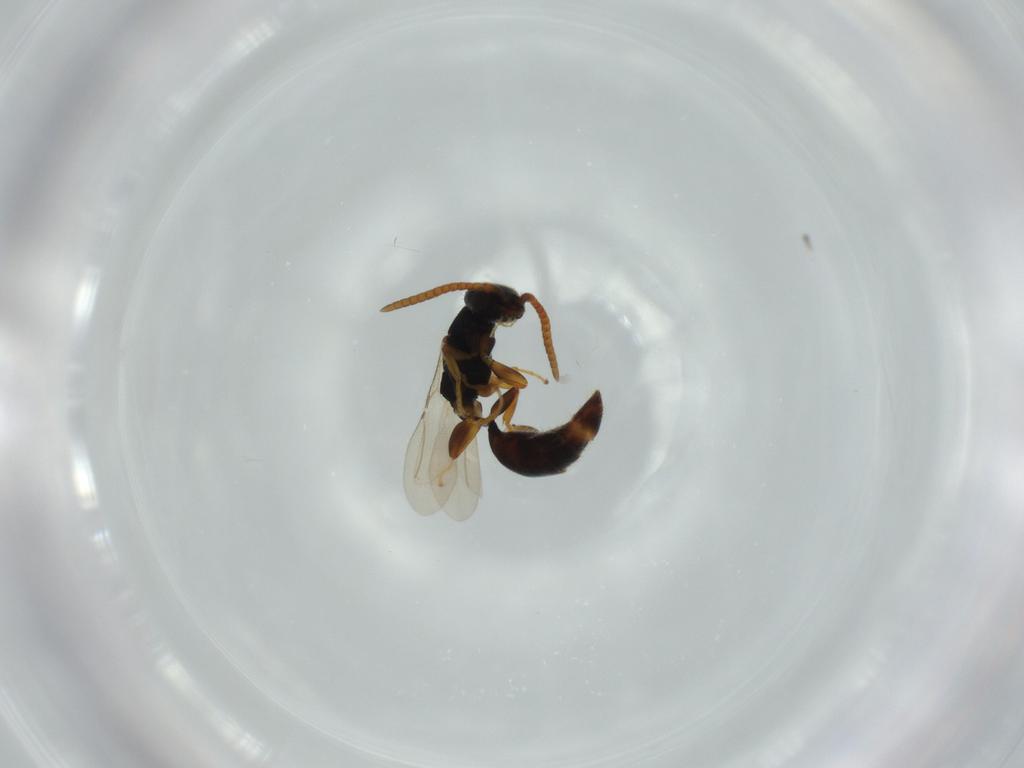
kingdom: Animalia
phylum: Arthropoda
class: Insecta
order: Hymenoptera
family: Bethylidae
